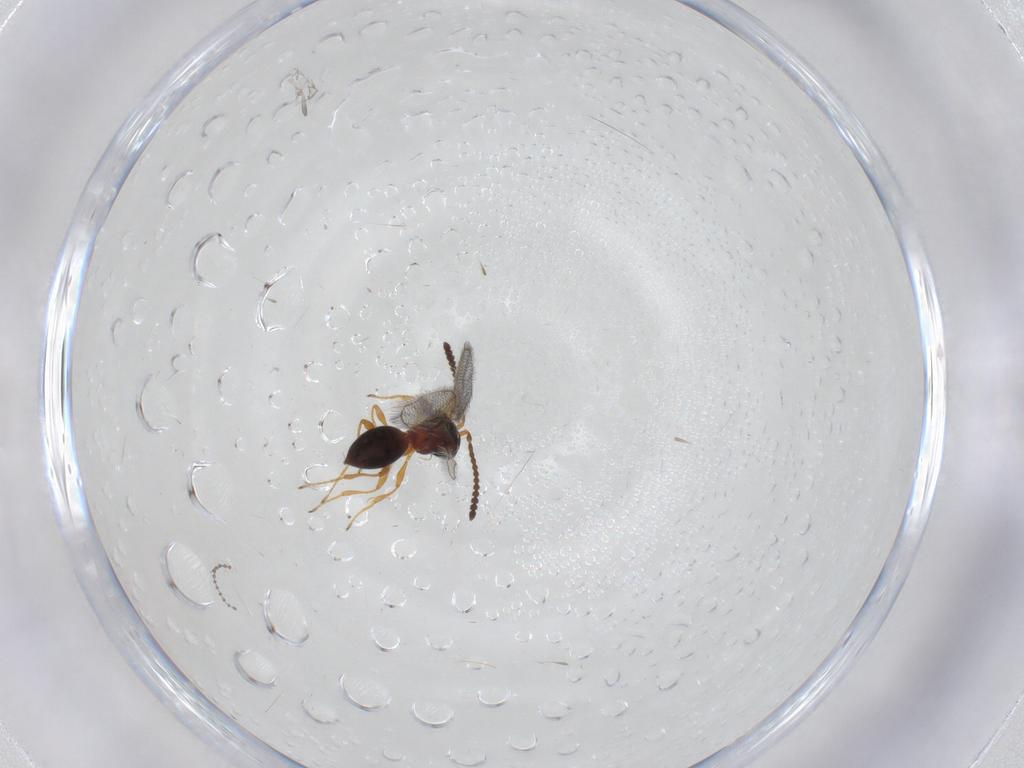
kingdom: Animalia
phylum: Arthropoda
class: Insecta
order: Hymenoptera
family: Diapriidae
